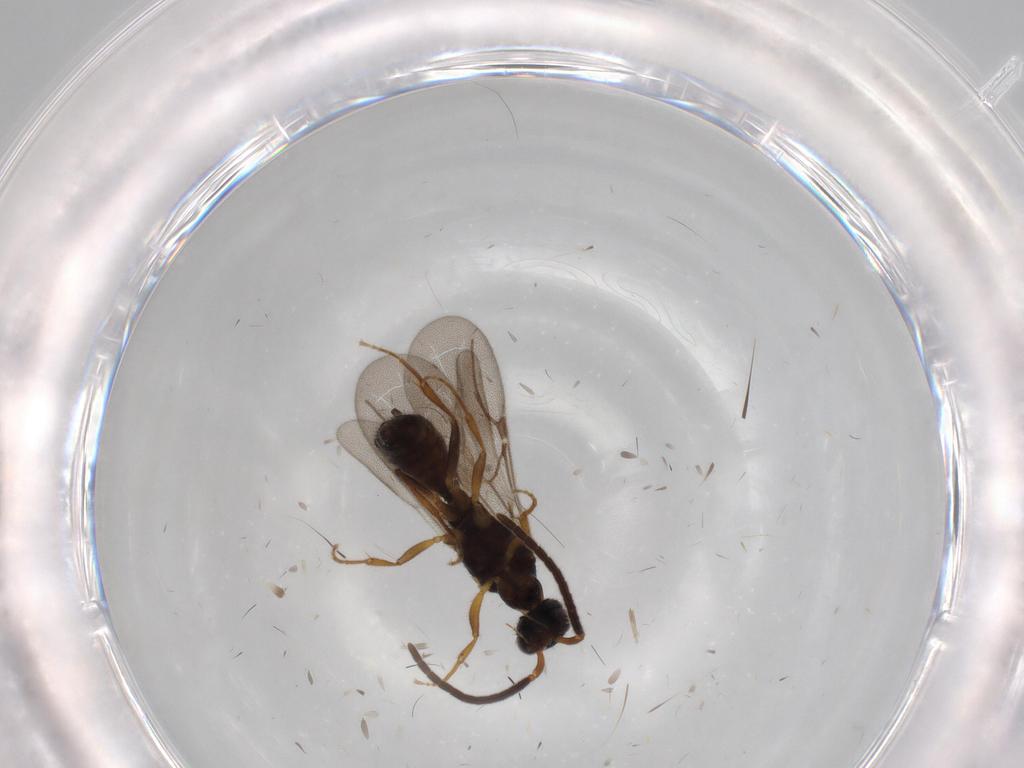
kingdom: Animalia
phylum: Arthropoda
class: Insecta
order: Hymenoptera
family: Bethylidae
